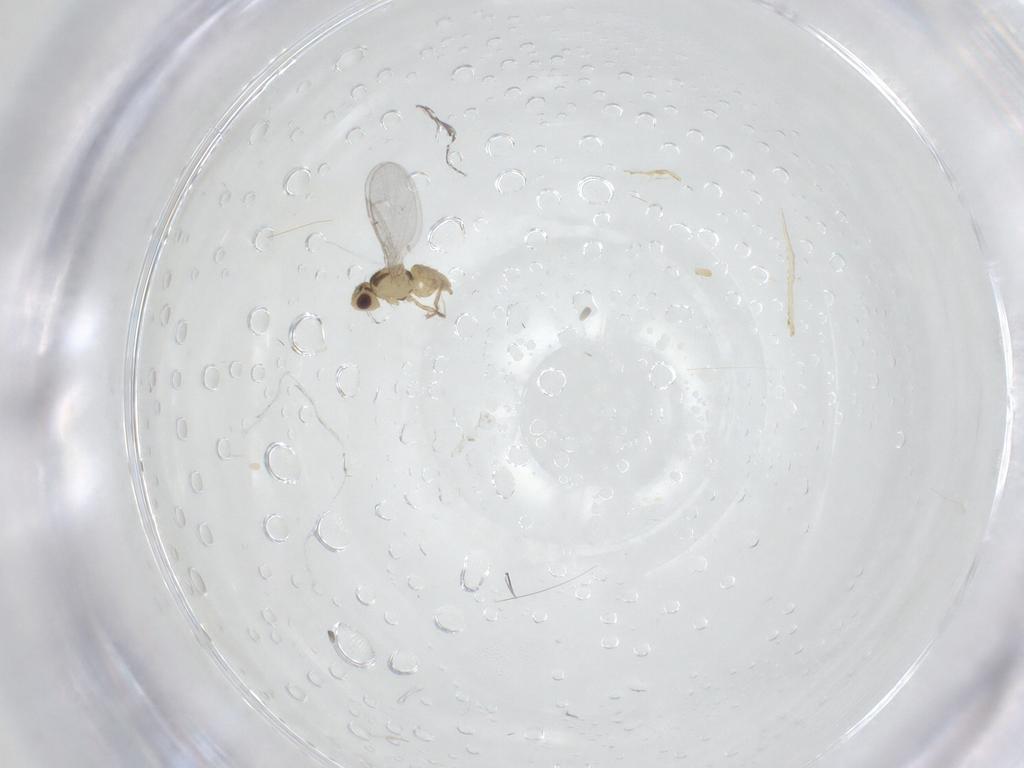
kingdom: Animalia
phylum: Arthropoda
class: Insecta
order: Diptera
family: Agromyzidae
